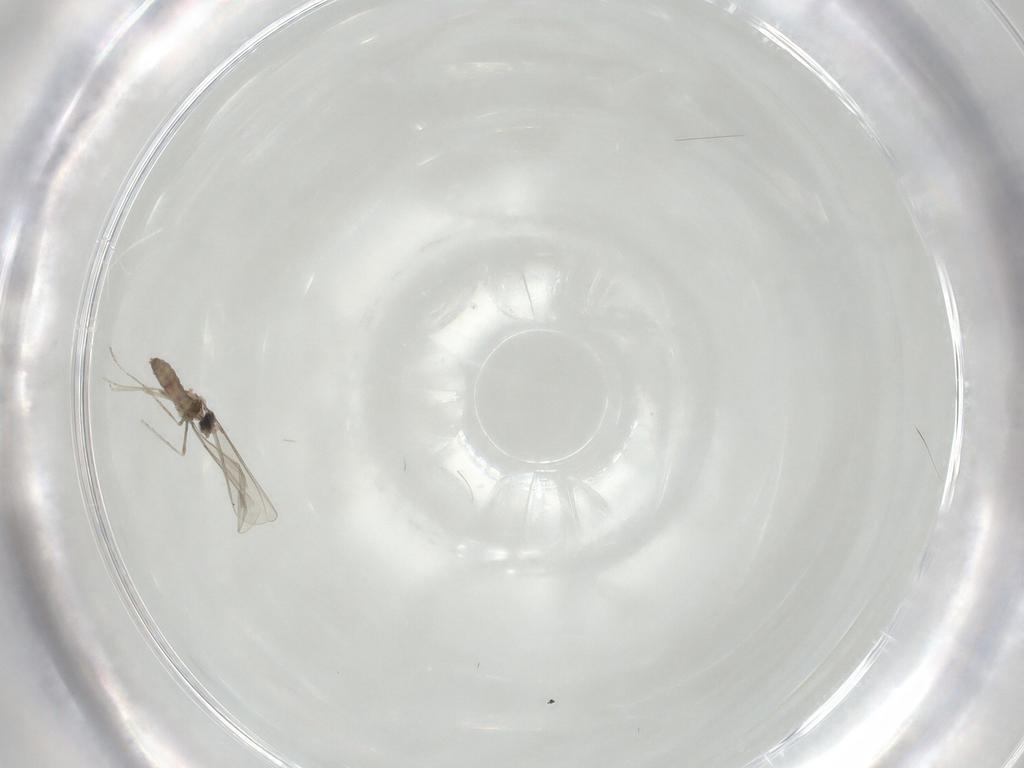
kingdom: Animalia
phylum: Arthropoda
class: Insecta
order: Diptera
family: Cecidomyiidae
